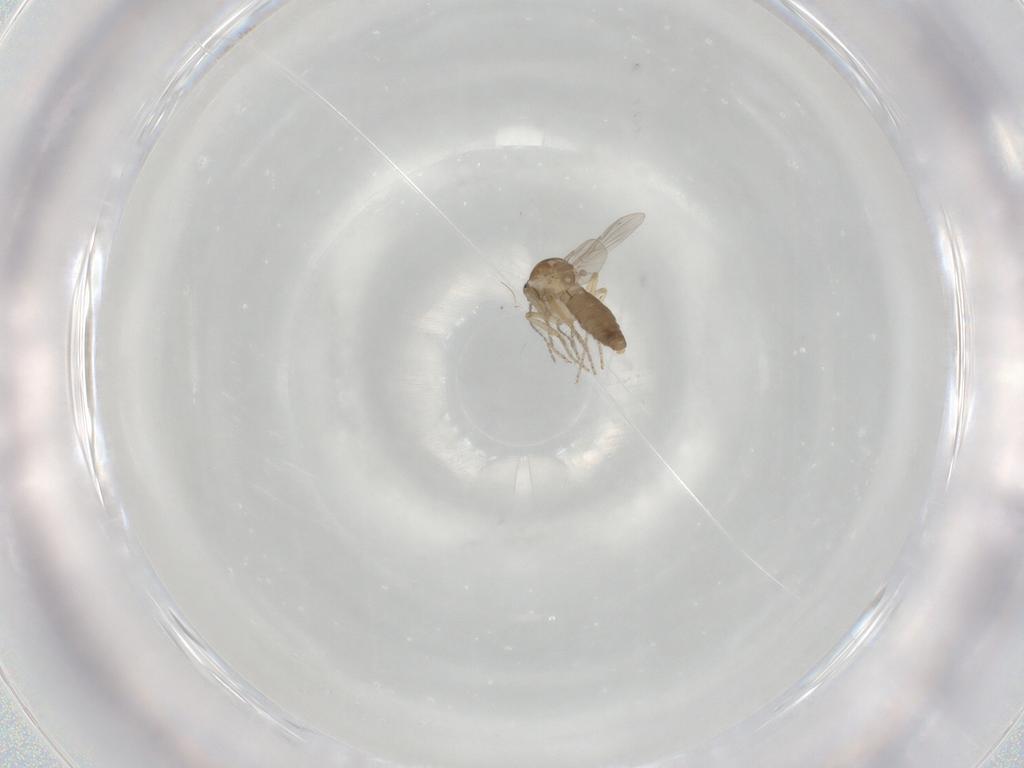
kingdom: Animalia
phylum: Arthropoda
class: Insecta
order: Diptera
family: Ceratopogonidae
